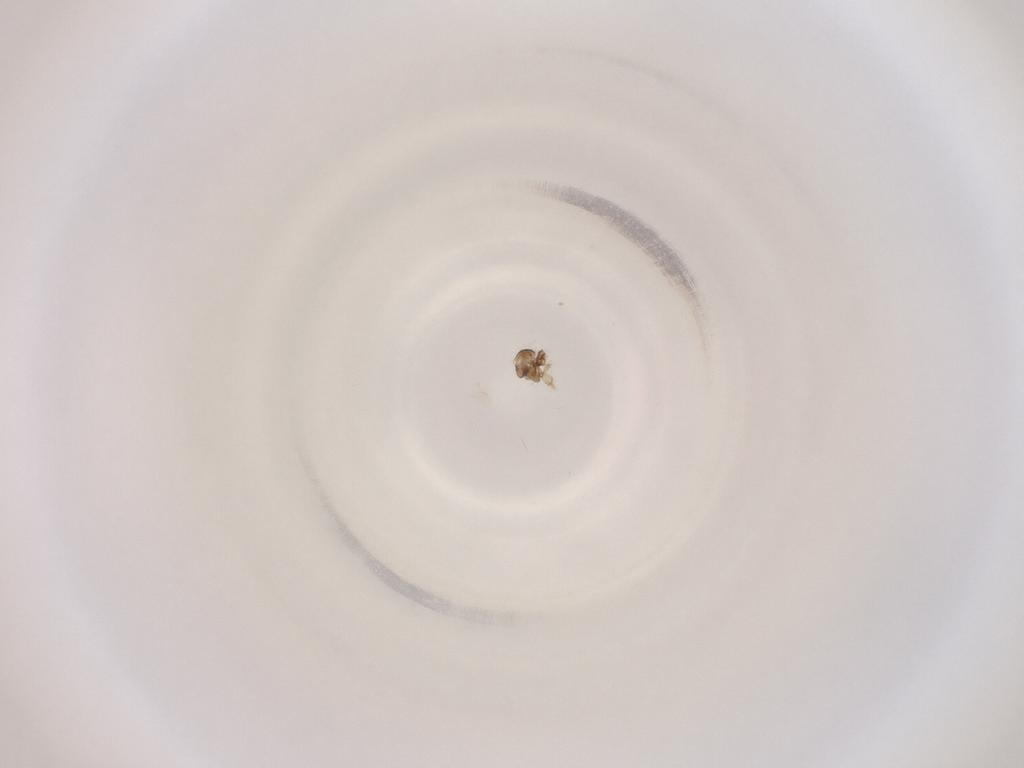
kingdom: Animalia
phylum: Arthropoda
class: Insecta
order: Diptera
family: Cecidomyiidae
